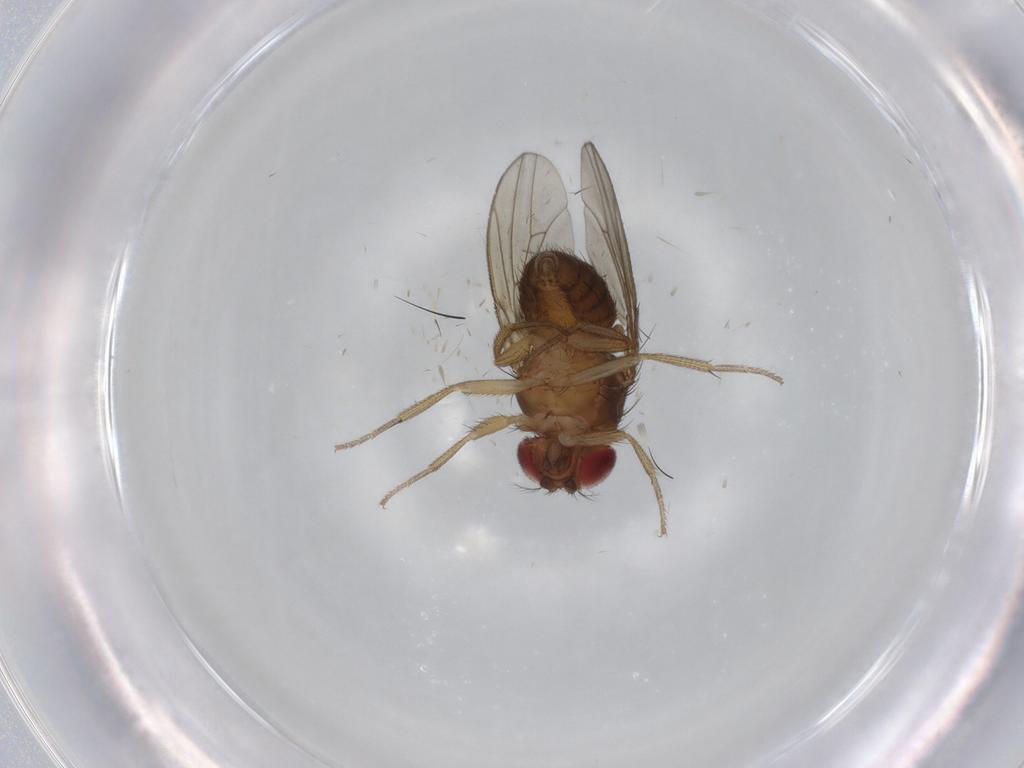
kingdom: Animalia
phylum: Arthropoda
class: Insecta
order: Diptera
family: Drosophilidae
